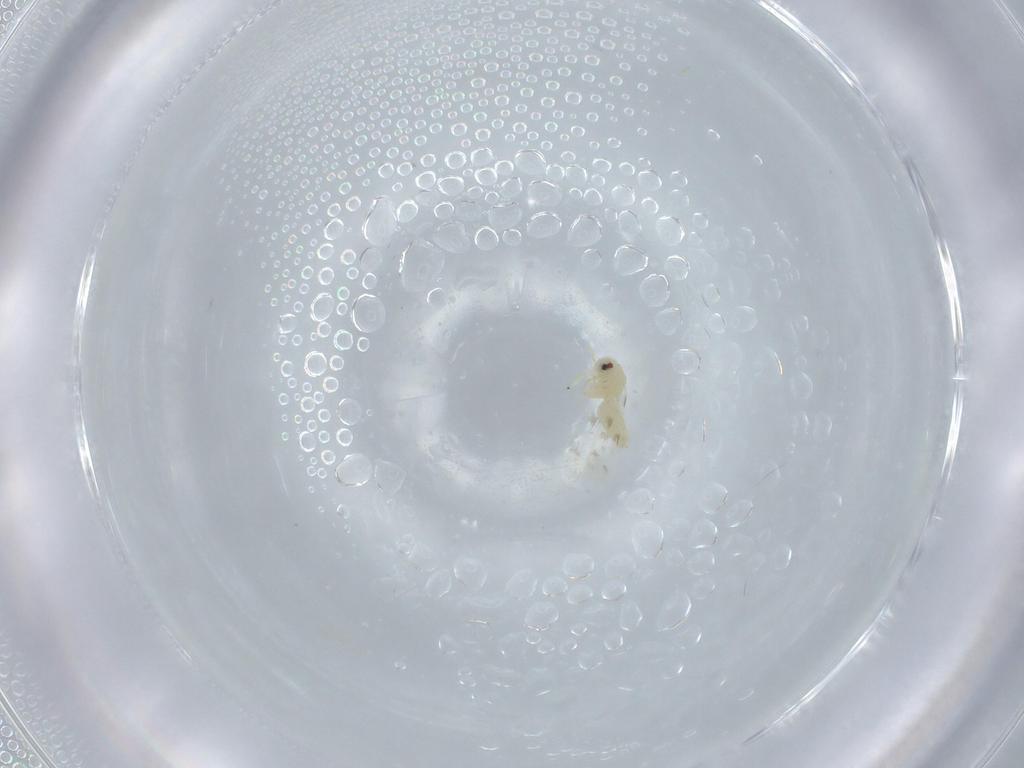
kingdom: Animalia
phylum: Arthropoda
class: Insecta
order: Hemiptera
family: Aleyrodidae
